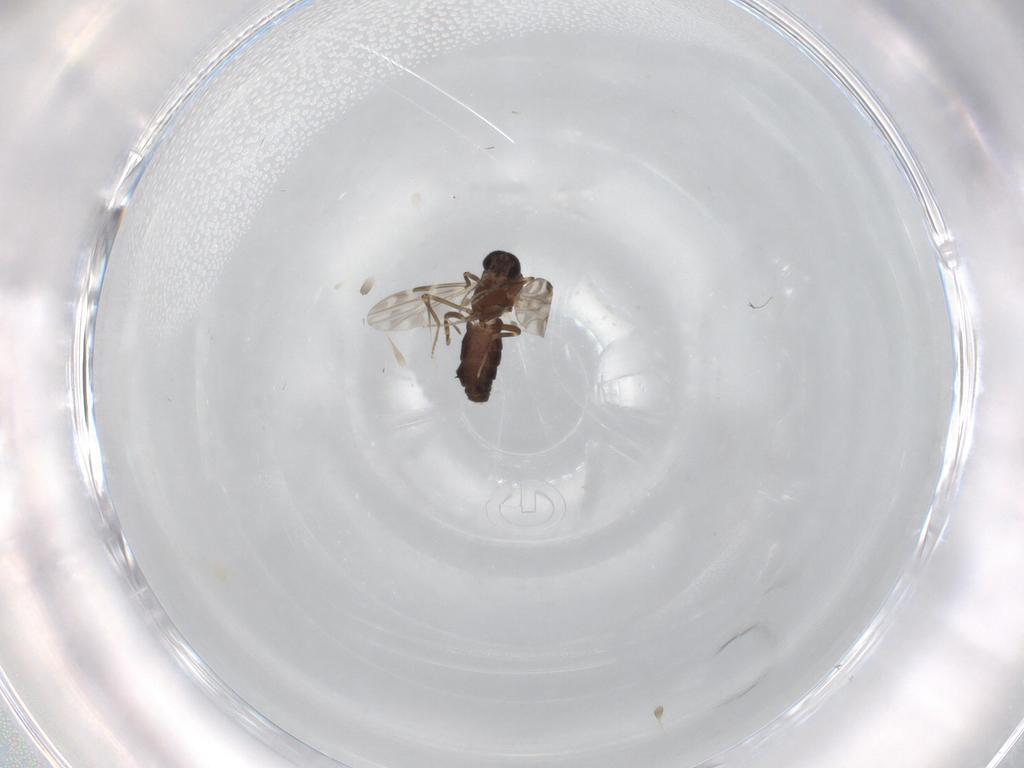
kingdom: Animalia
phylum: Arthropoda
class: Insecta
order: Diptera
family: Ceratopogonidae
